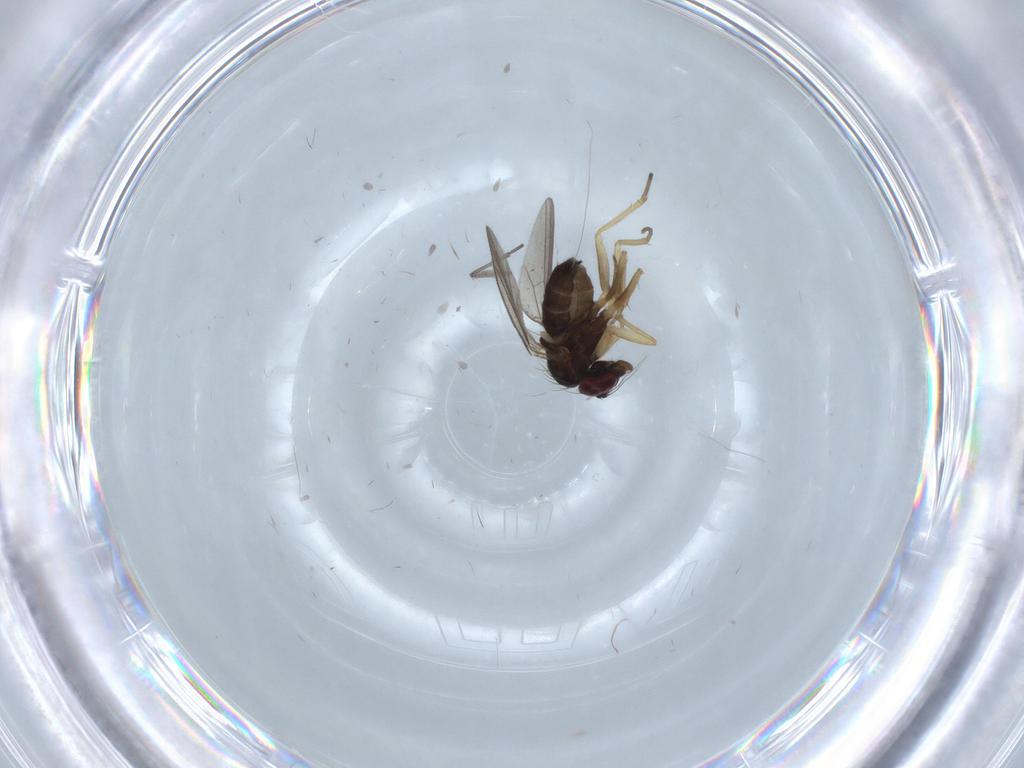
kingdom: Animalia
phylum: Arthropoda
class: Insecta
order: Diptera
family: Dolichopodidae
